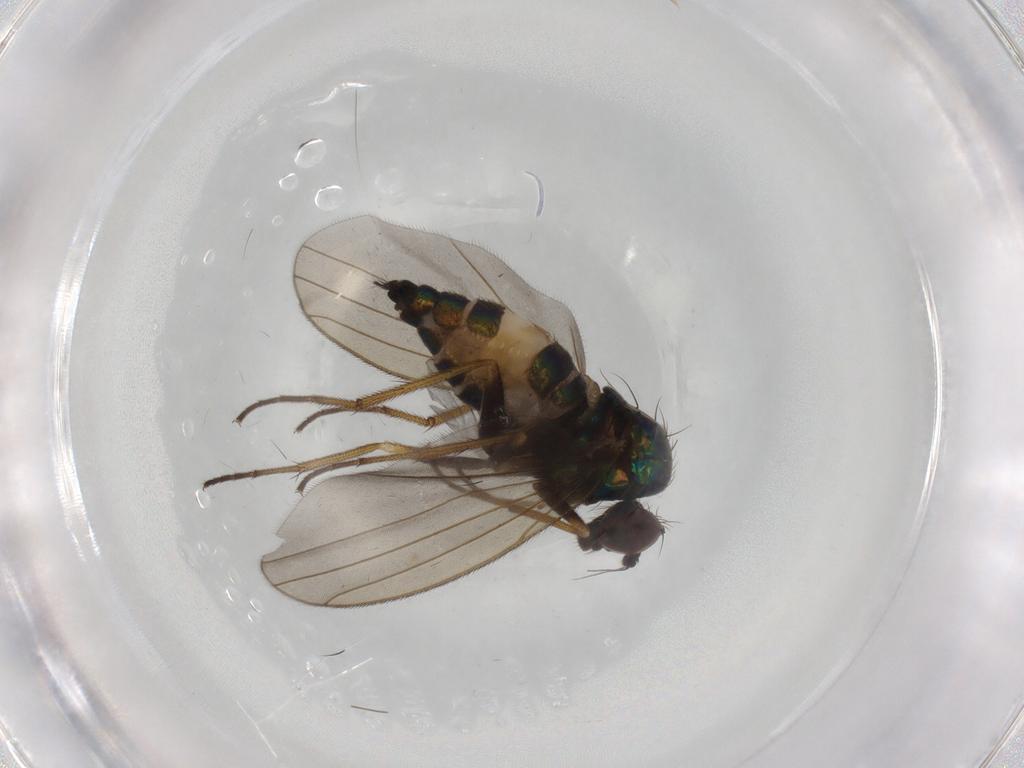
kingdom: Animalia
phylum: Arthropoda
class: Insecta
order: Diptera
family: Dolichopodidae
